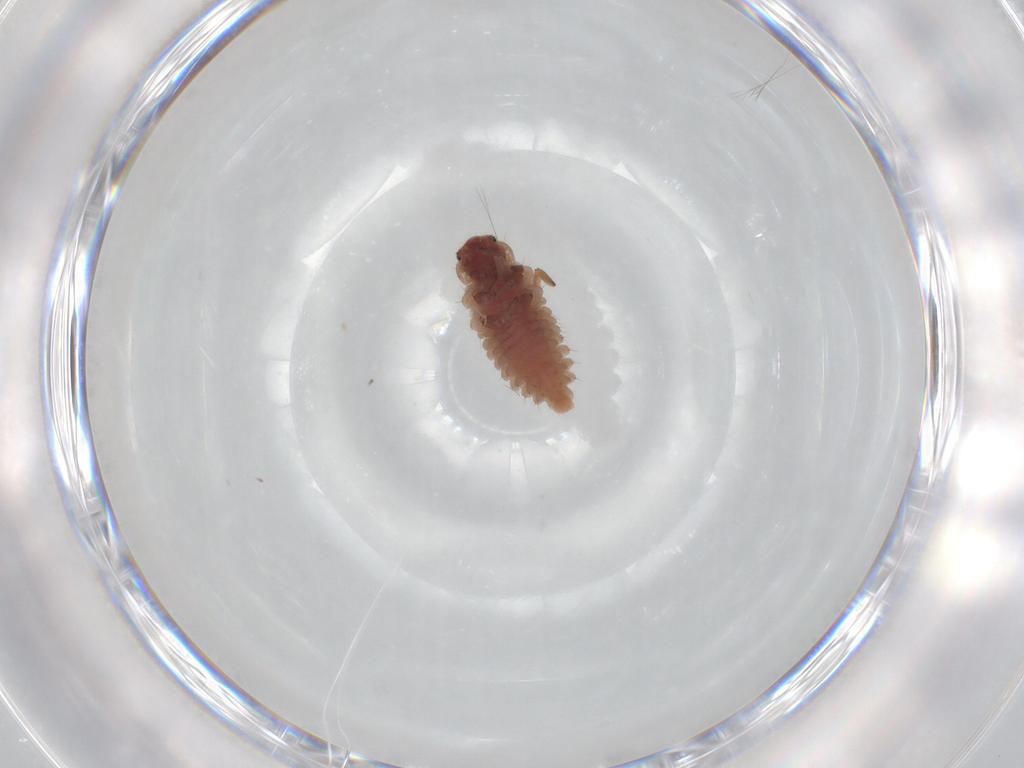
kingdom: Animalia
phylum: Arthropoda
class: Insecta
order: Coleoptera
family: Coccinellidae
